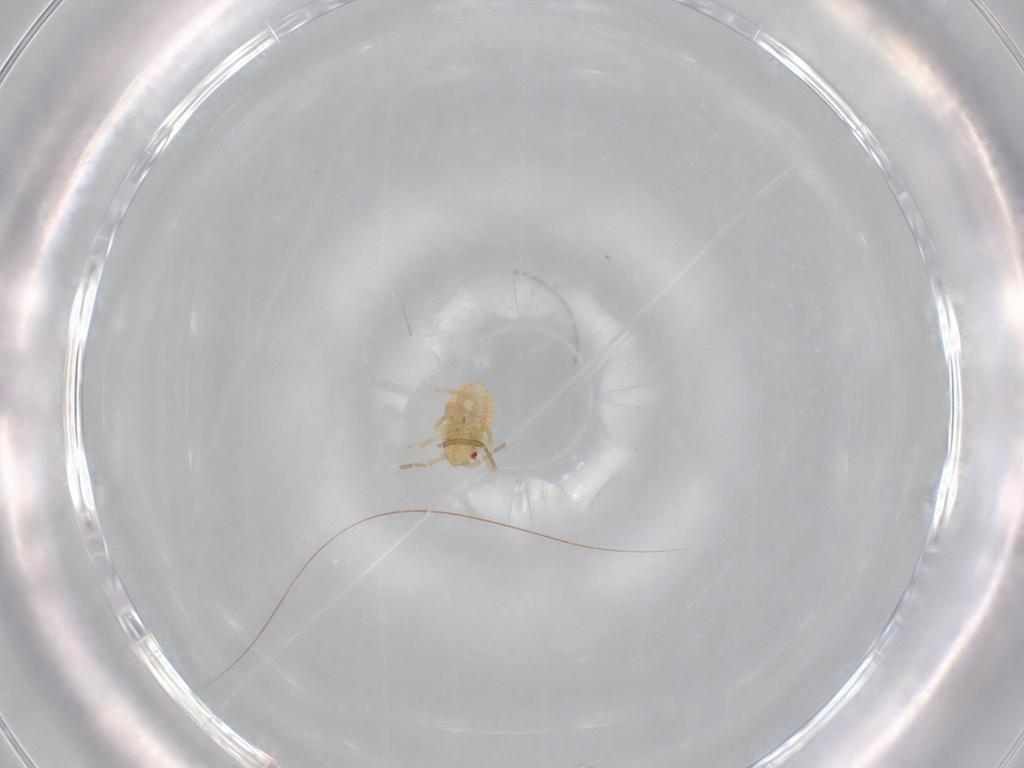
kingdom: Animalia
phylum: Arthropoda
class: Insecta
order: Hemiptera
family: Miridae
